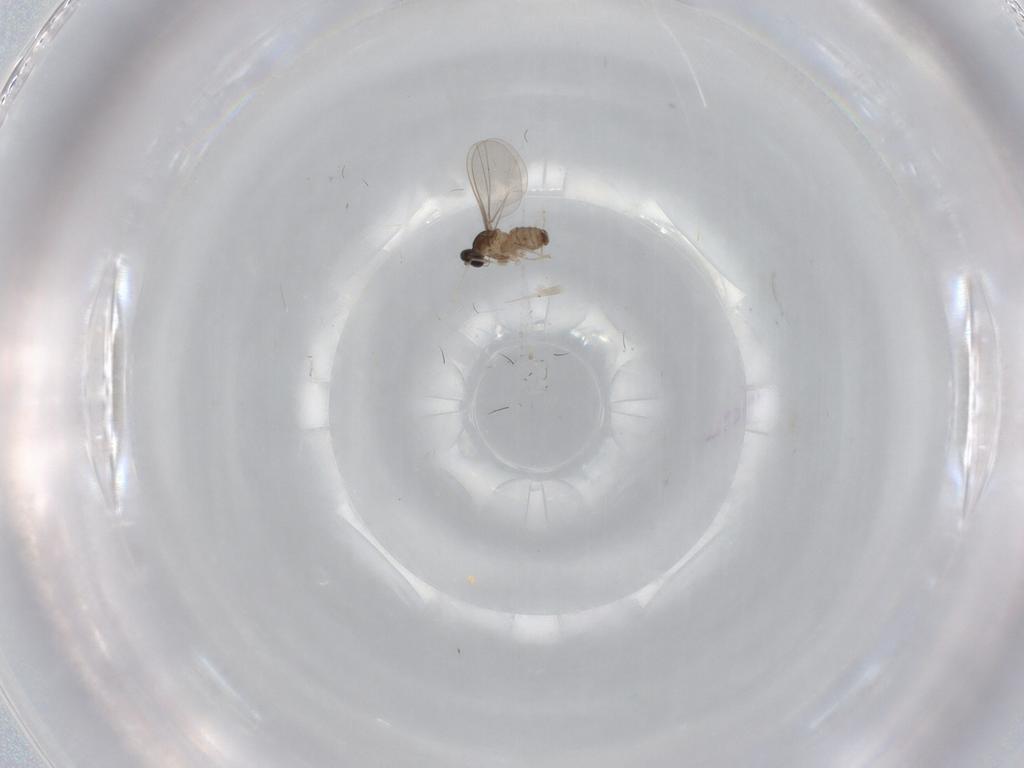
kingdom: Animalia
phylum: Arthropoda
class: Insecta
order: Diptera
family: Cecidomyiidae
